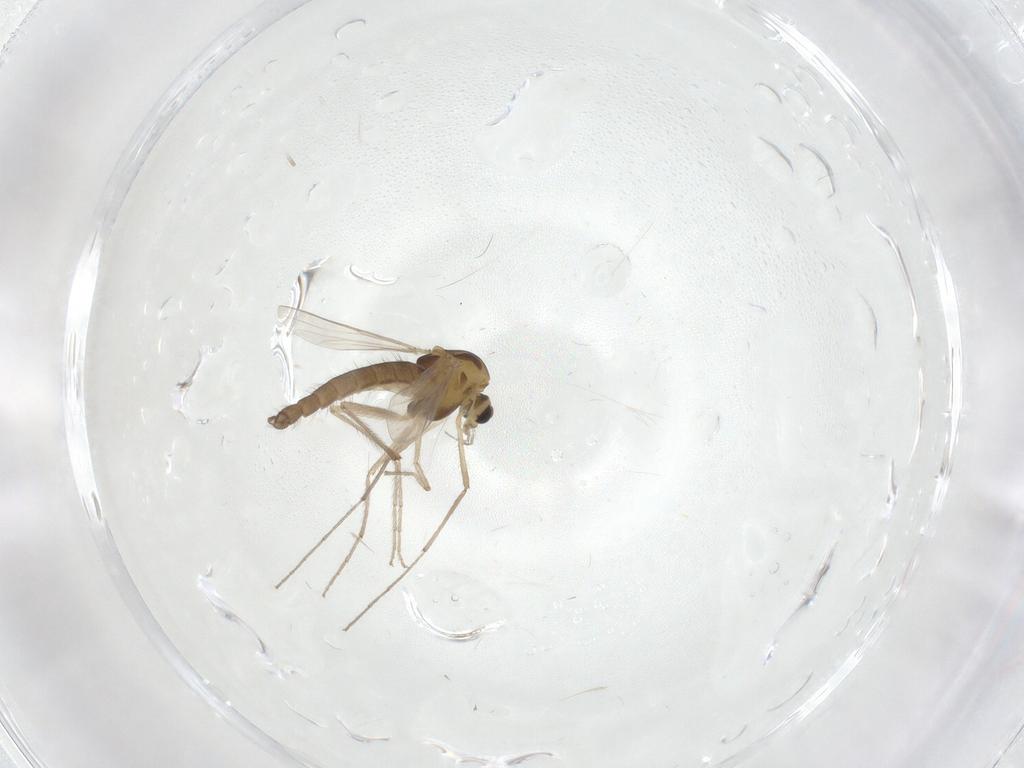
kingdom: Animalia
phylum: Arthropoda
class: Insecta
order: Diptera
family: Chironomidae
